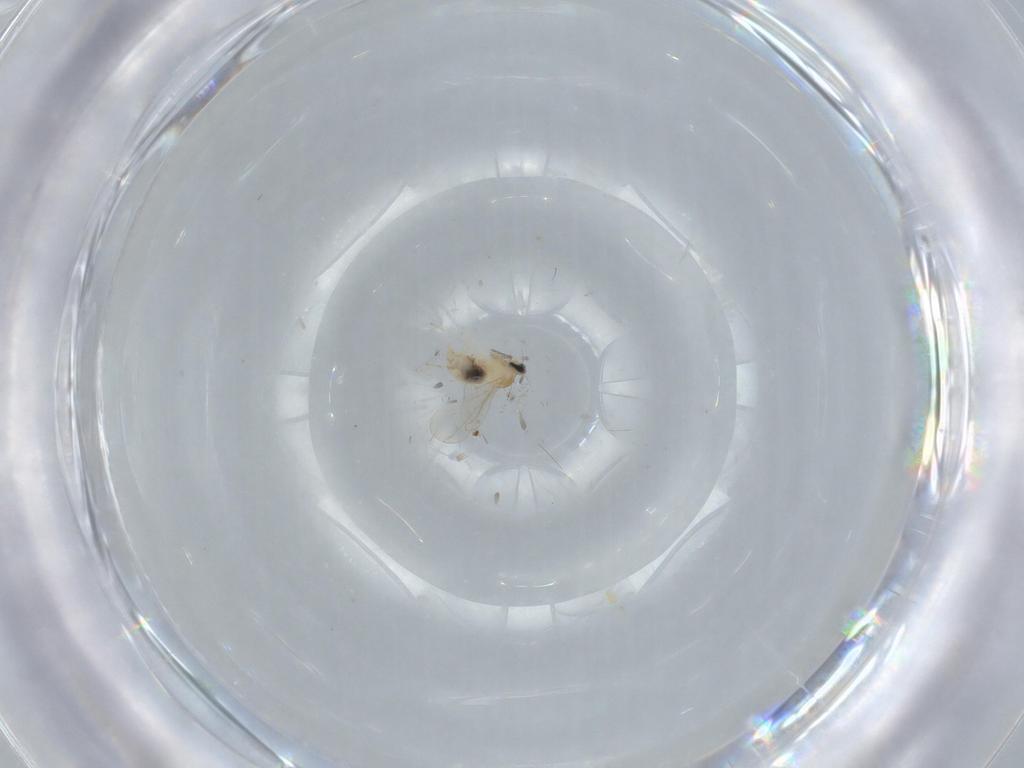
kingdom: Animalia
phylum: Arthropoda
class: Insecta
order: Diptera
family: Cecidomyiidae
